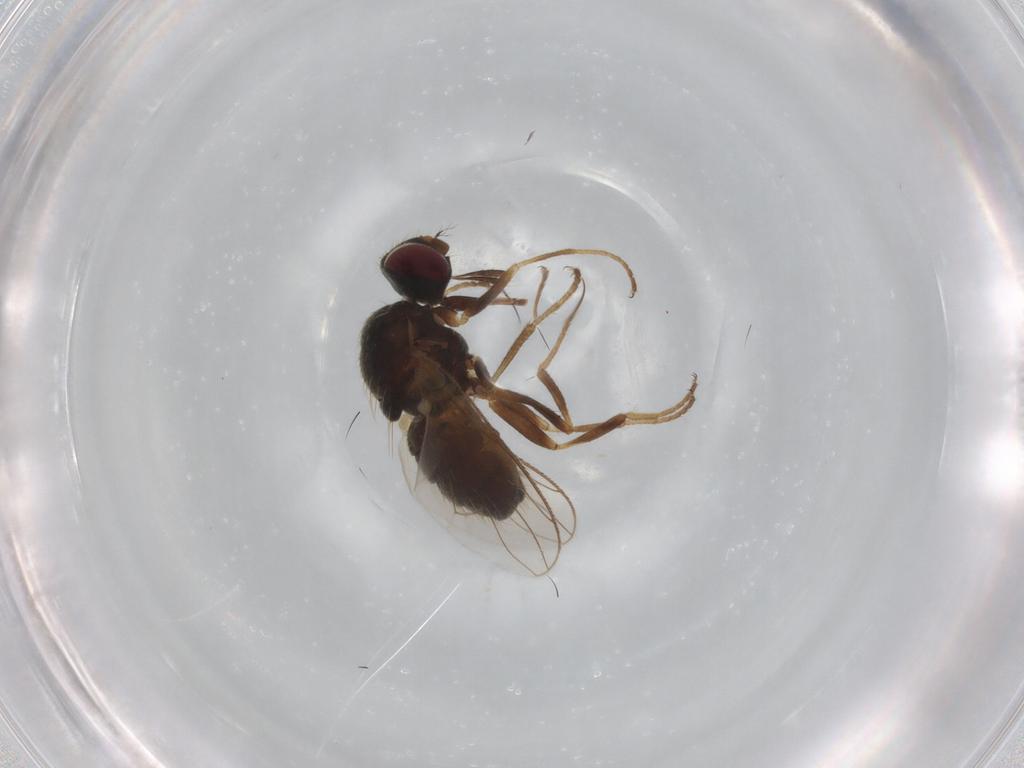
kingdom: Animalia
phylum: Arthropoda
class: Insecta
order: Diptera
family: Muscidae
